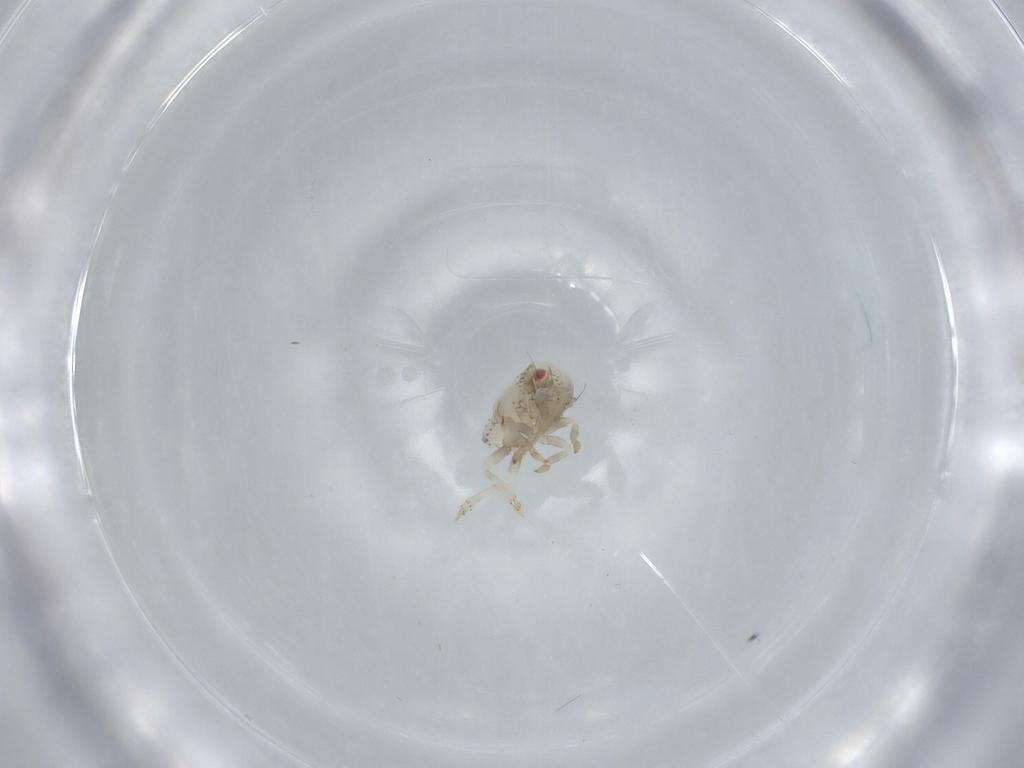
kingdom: Animalia
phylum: Arthropoda
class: Insecta
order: Hemiptera
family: Acanaloniidae
